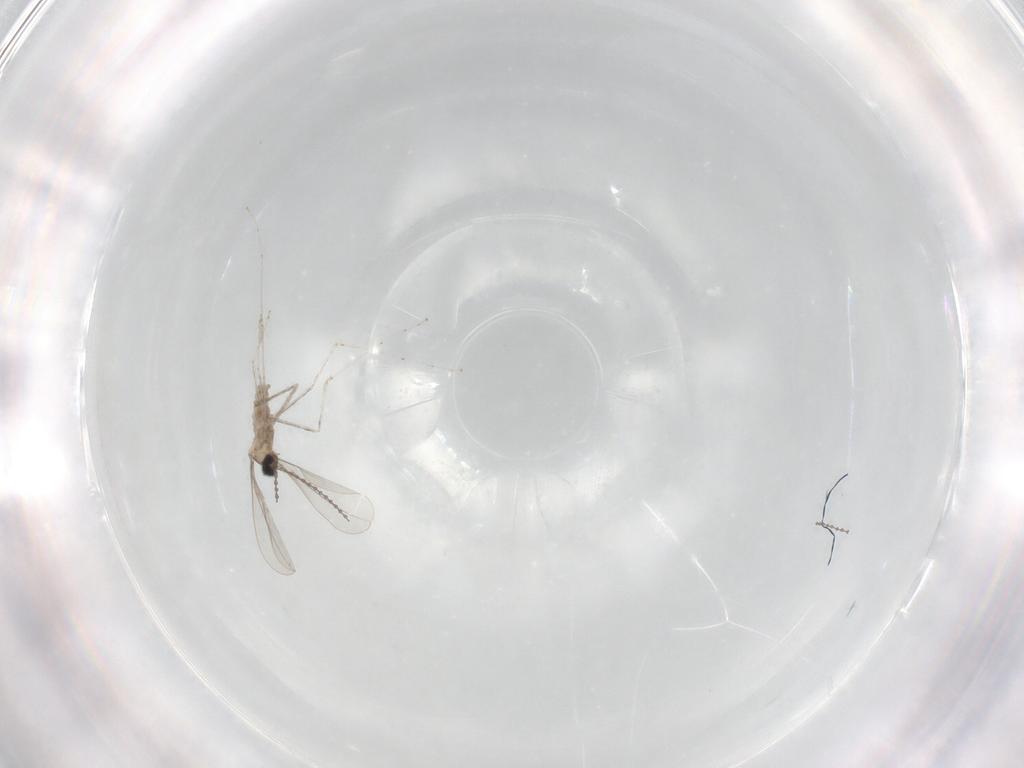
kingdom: Animalia
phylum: Arthropoda
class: Insecta
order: Diptera
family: Cecidomyiidae
